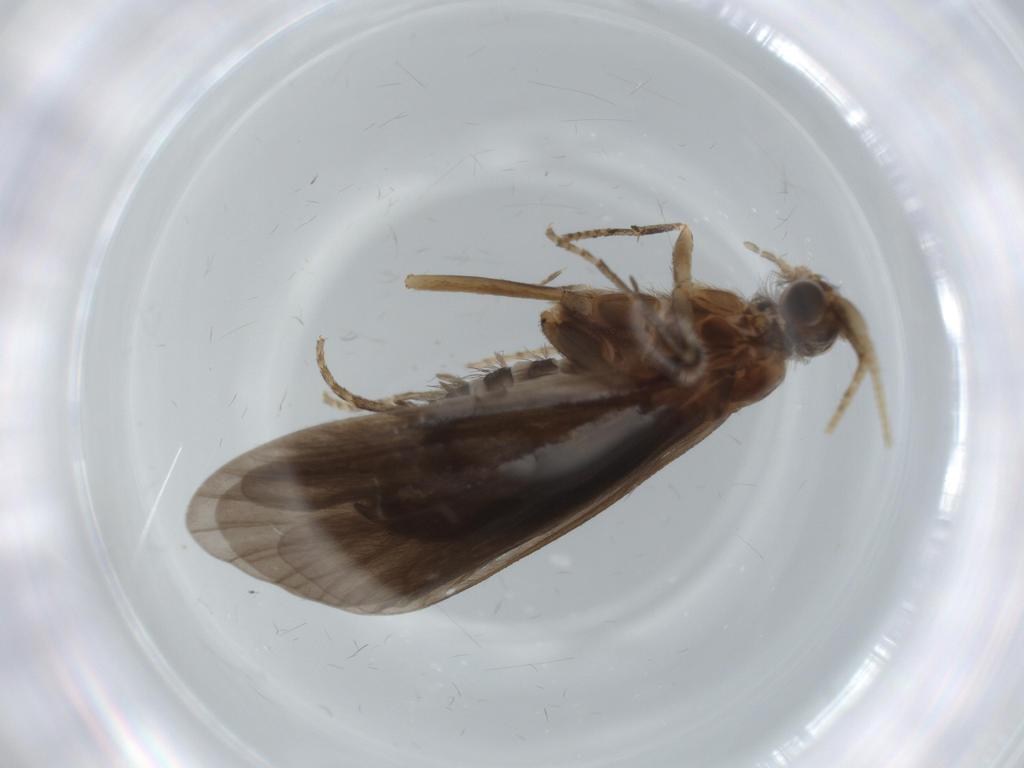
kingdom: Animalia
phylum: Arthropoda
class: Insecta
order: Trichoptera
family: Helicopsychidae
